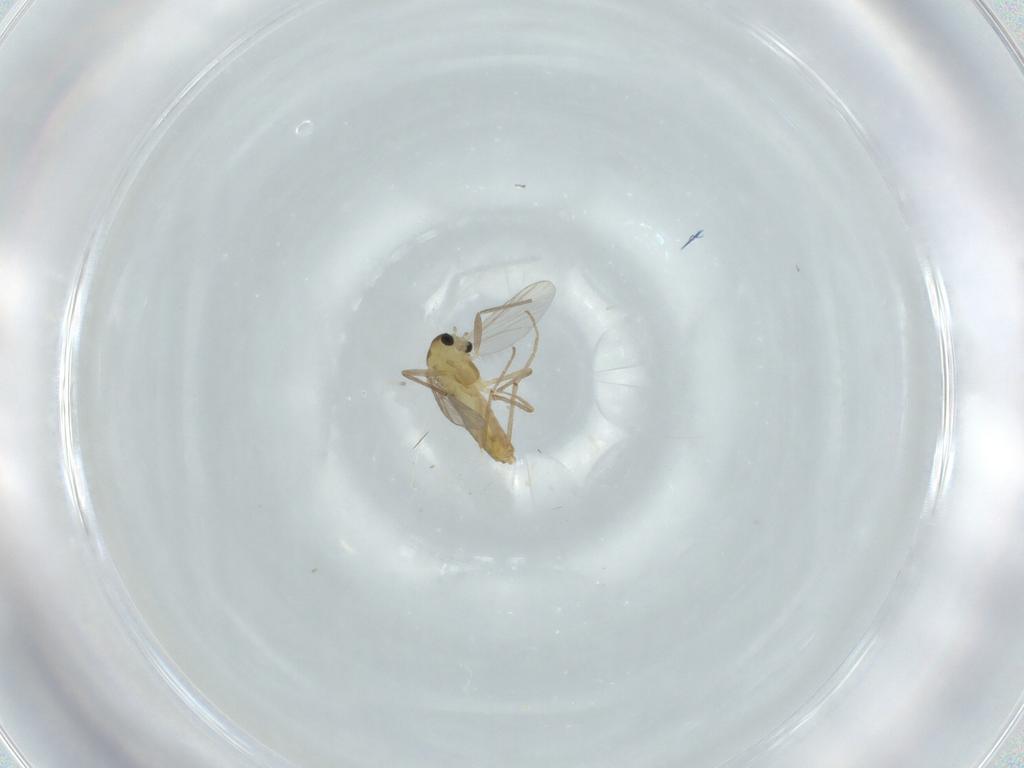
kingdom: Animalia
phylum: Arthropoda
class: Insecta
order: Diptera
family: Chironomidae
